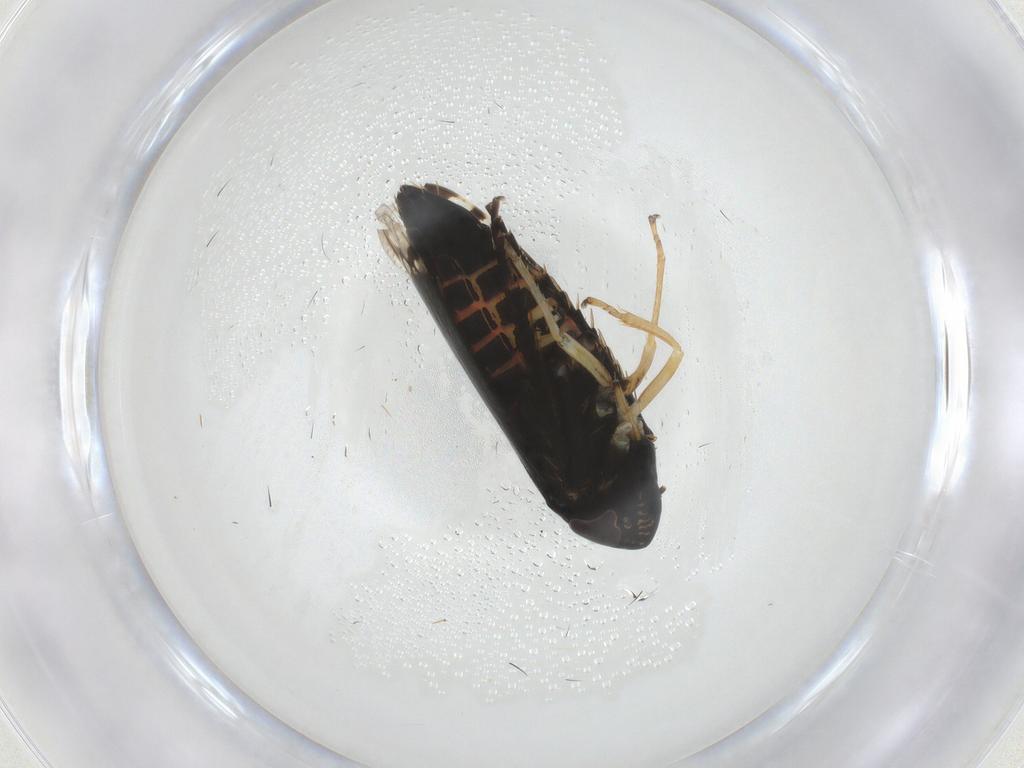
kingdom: Animalia
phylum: Arthropoda
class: Insecta
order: Hemiptera
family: Cicadellidae
